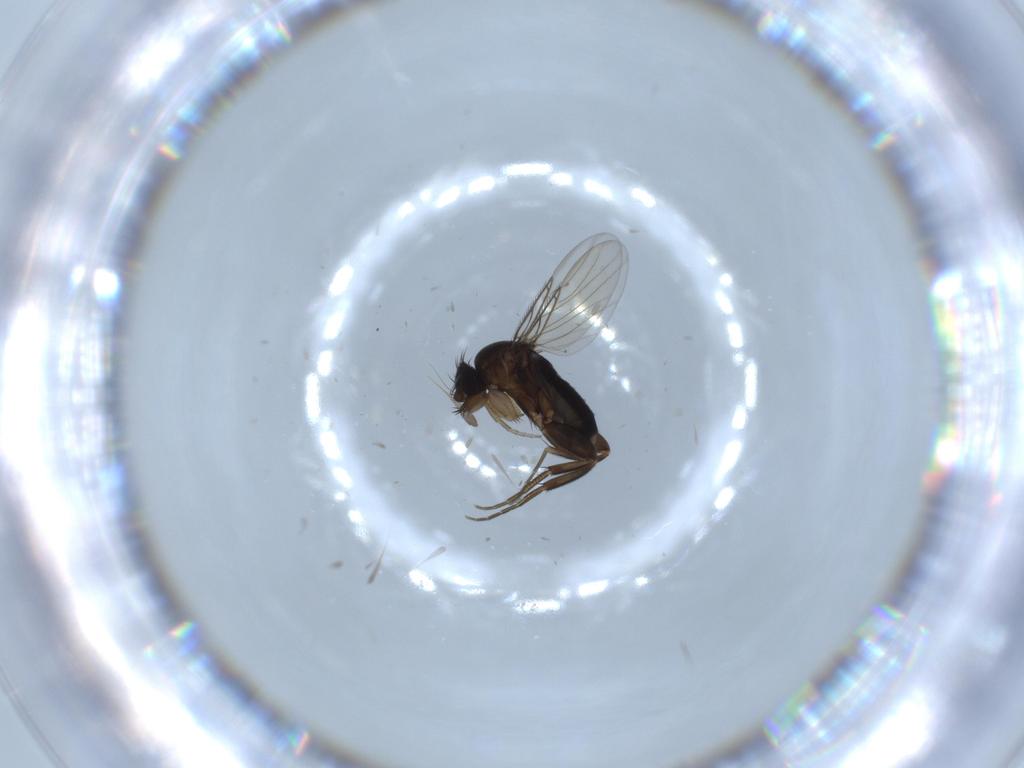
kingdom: Animalia
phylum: Arthropoda
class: Insecta
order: Diptera
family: Phoridae
